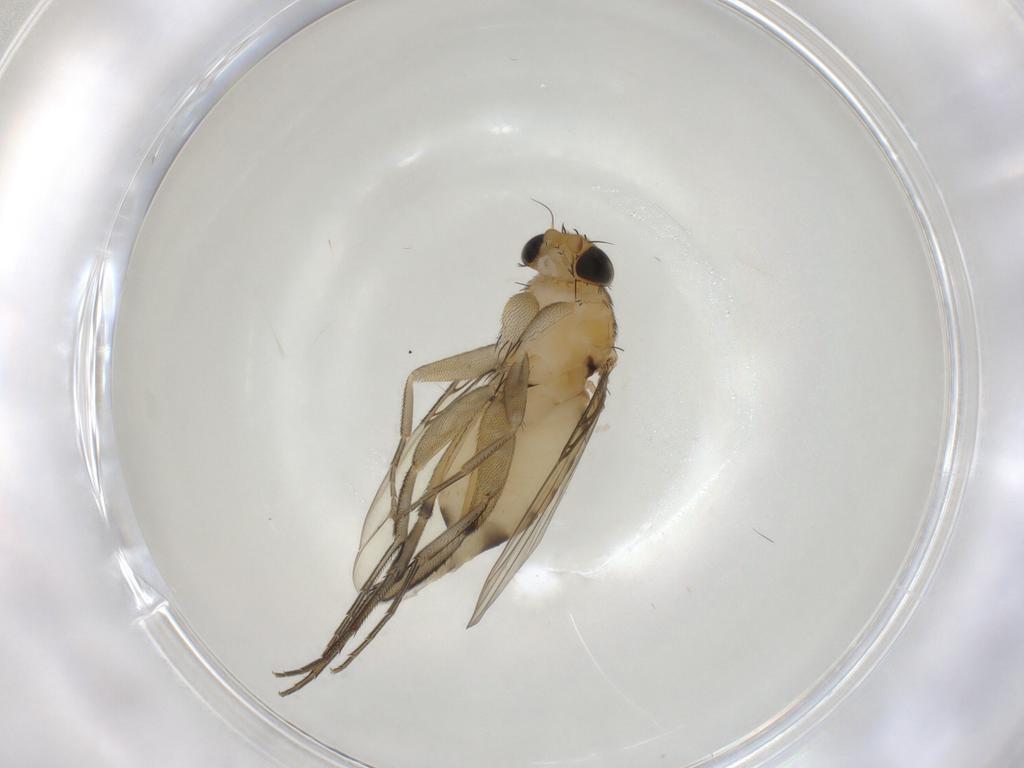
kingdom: Animalia
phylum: Arthropoda
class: Insecta
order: Diptera
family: Phoridae
